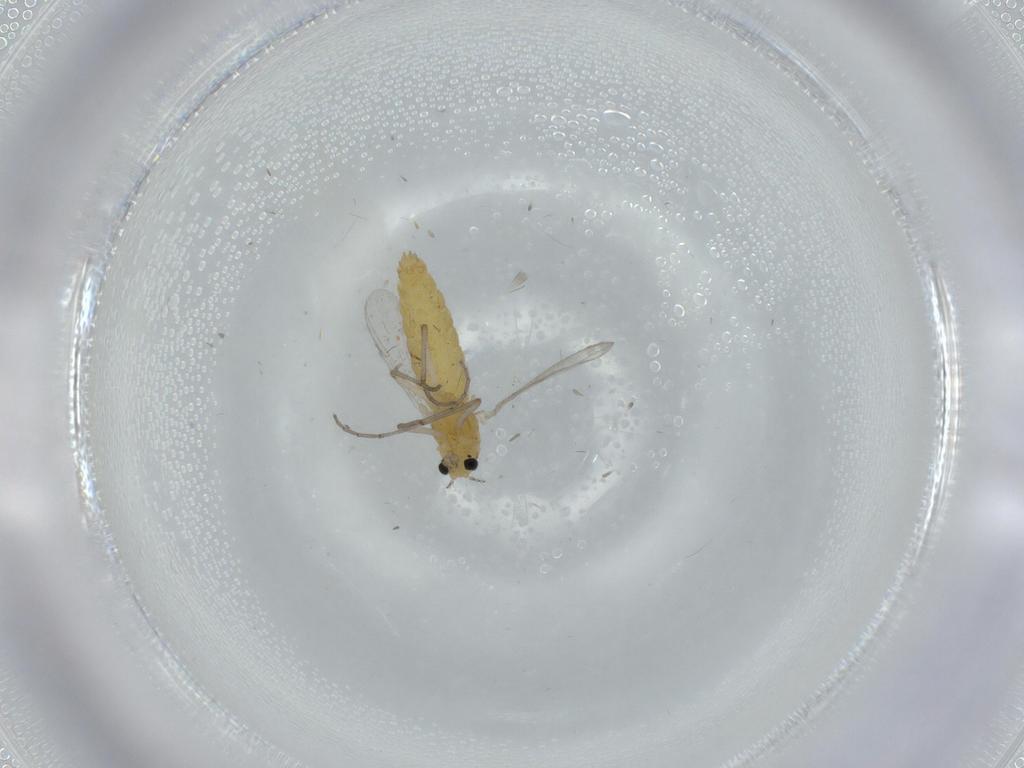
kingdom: Animalia
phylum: Arthropoda
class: Insecta
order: Diptera
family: Chironomidae
